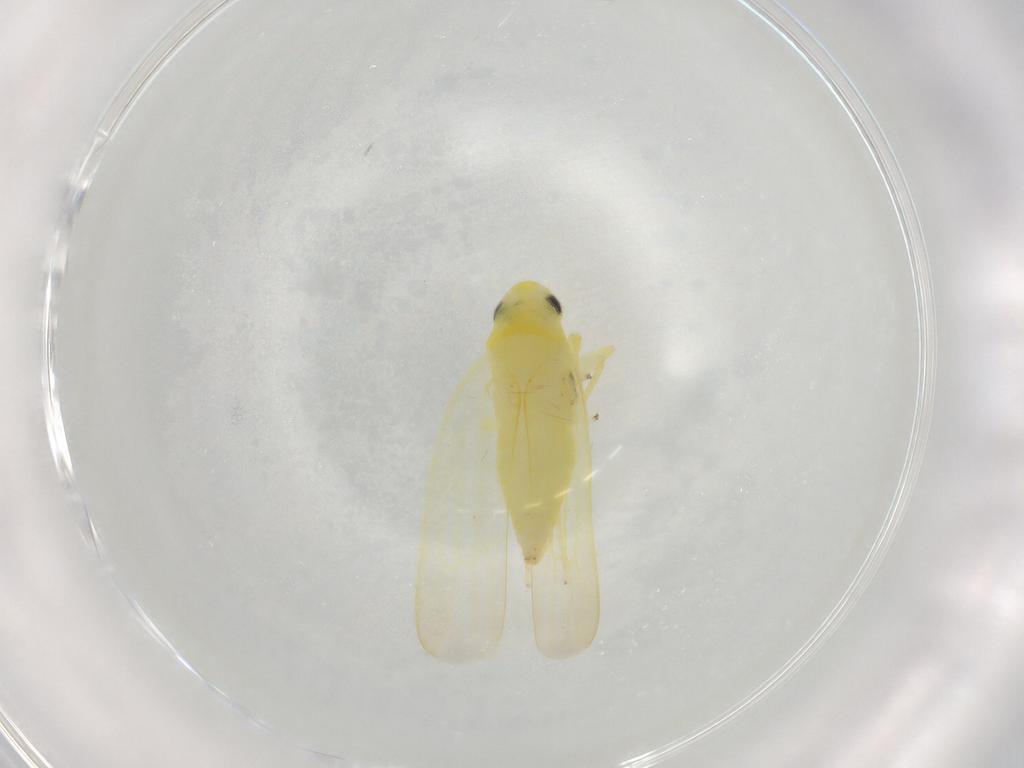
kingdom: Animalia
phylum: Arthropoda
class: Insecta
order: Hemiptera
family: Cicadellidae
